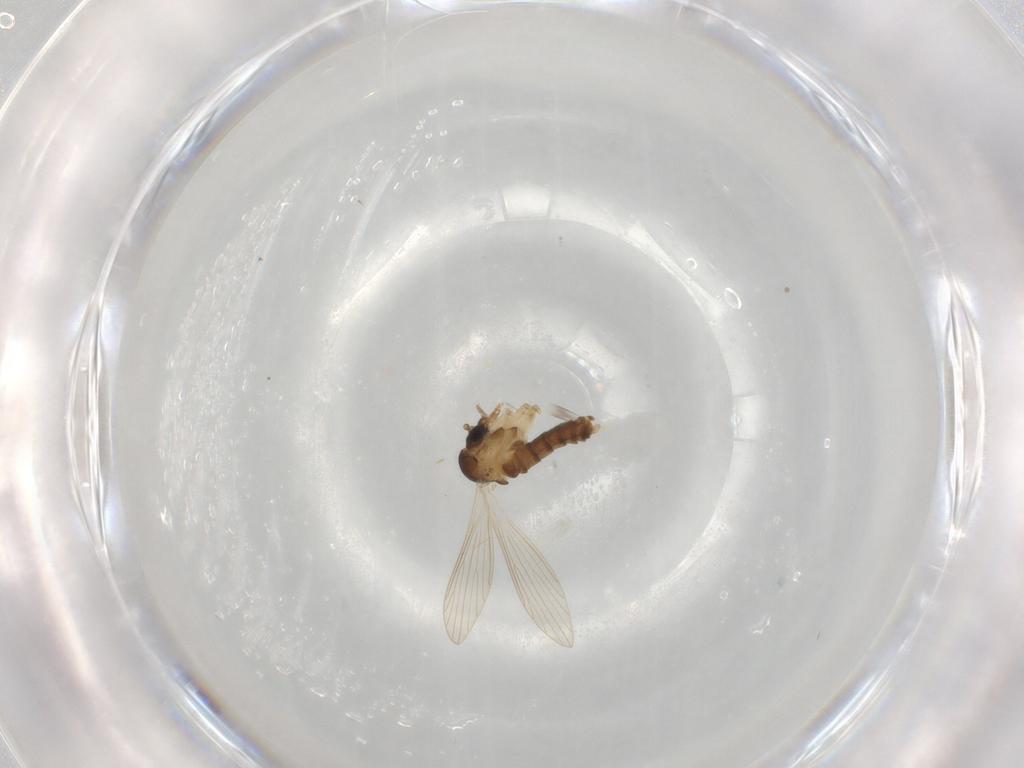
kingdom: Animalia
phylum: Arthropoda
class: Insecta
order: Diptera
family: Psychodidae
